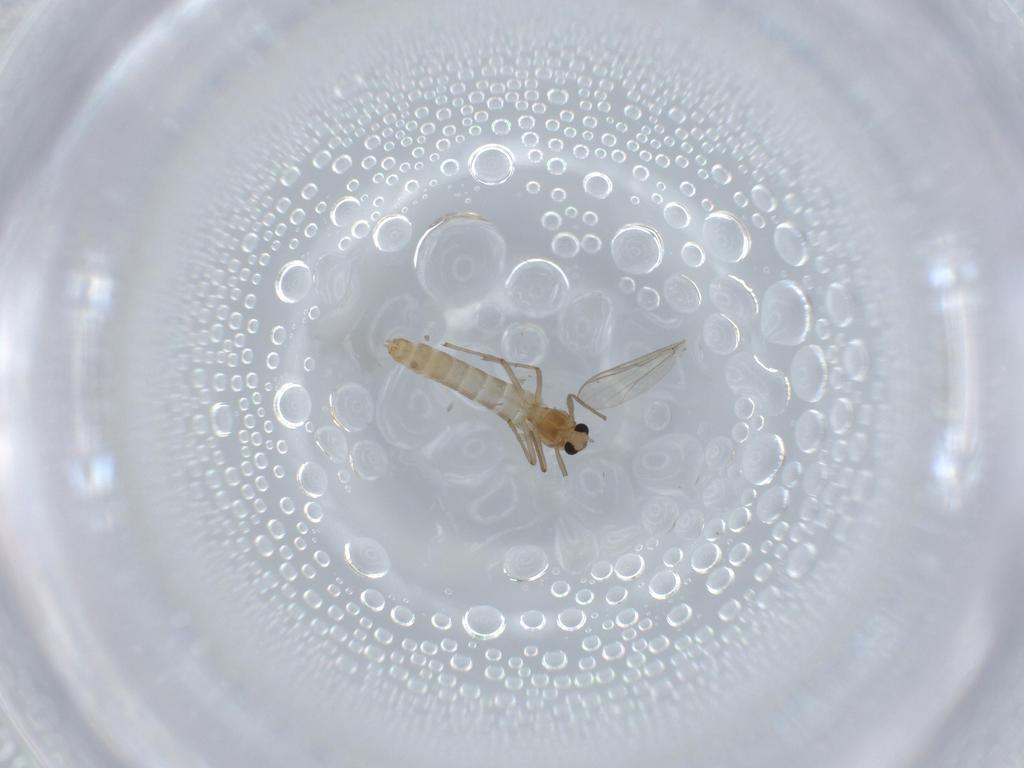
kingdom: Animalia
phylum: Arthropoda
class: Insecta
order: Diptera
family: Chironomidae
